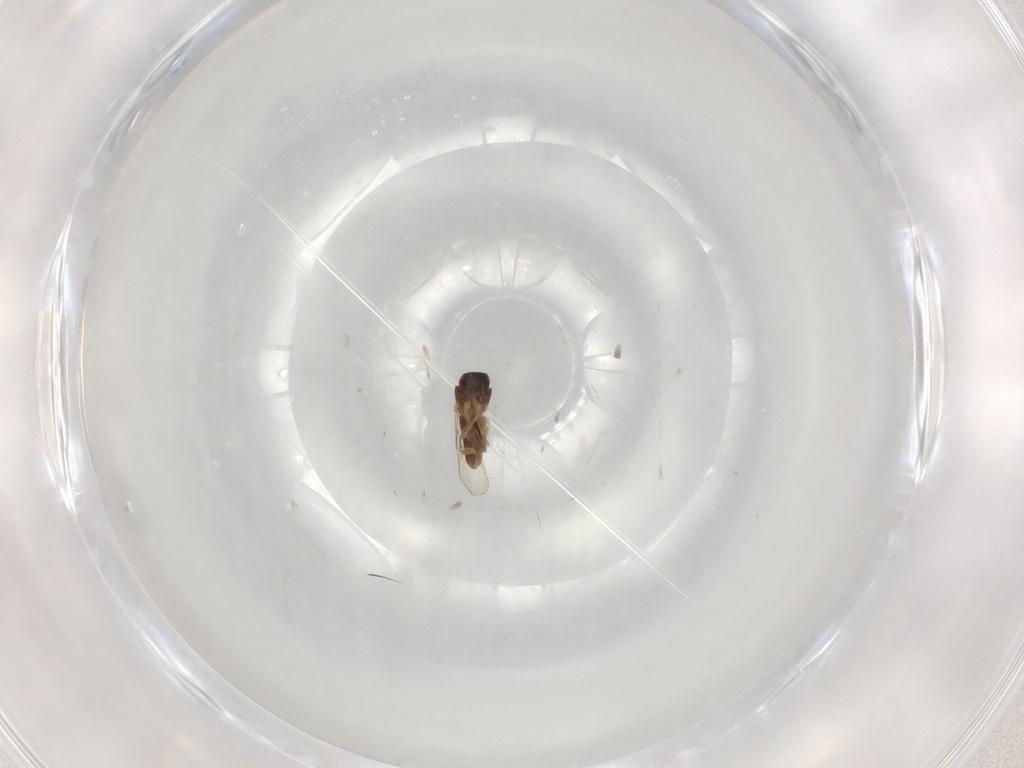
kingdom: Animalia
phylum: Arthropoda
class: Insecta
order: Diptera
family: Ceratopogonidae
